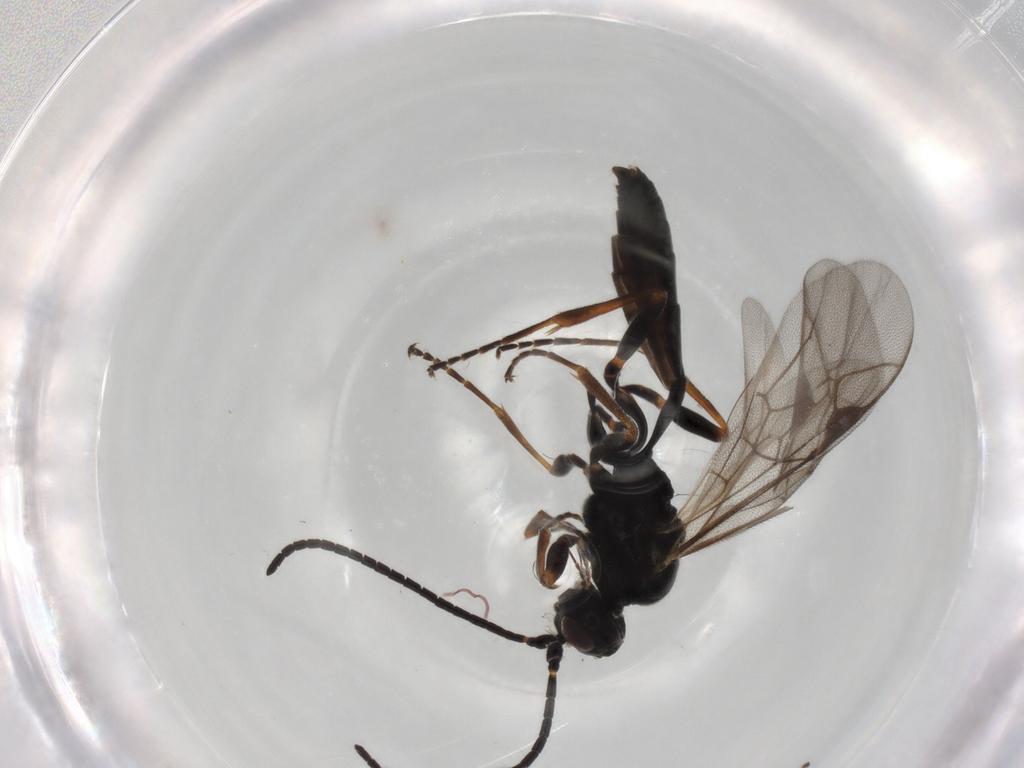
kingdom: Animalia
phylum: Arthropoda
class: Insecta
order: Hymenoptera
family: Ichneumonidae
